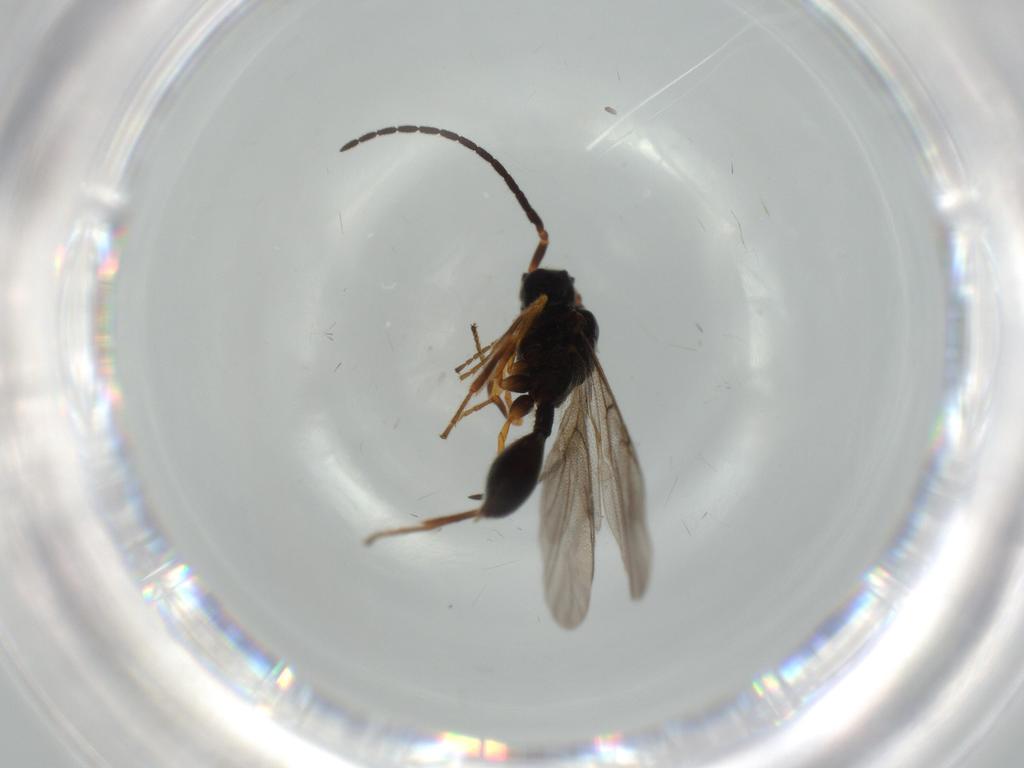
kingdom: Animalia
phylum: Arthropoda
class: Insecta
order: Hymenoptera
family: Diapriidae
